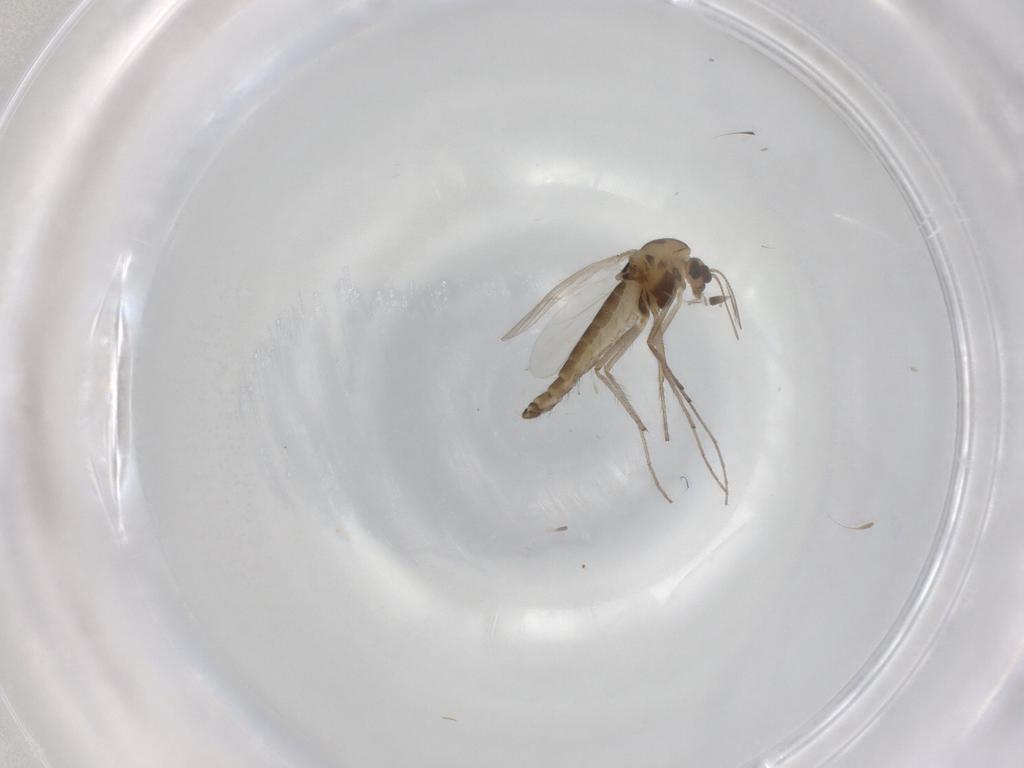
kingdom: Animalia
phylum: Arthropoda
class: Insecta
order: Diptera
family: Chironomidae
